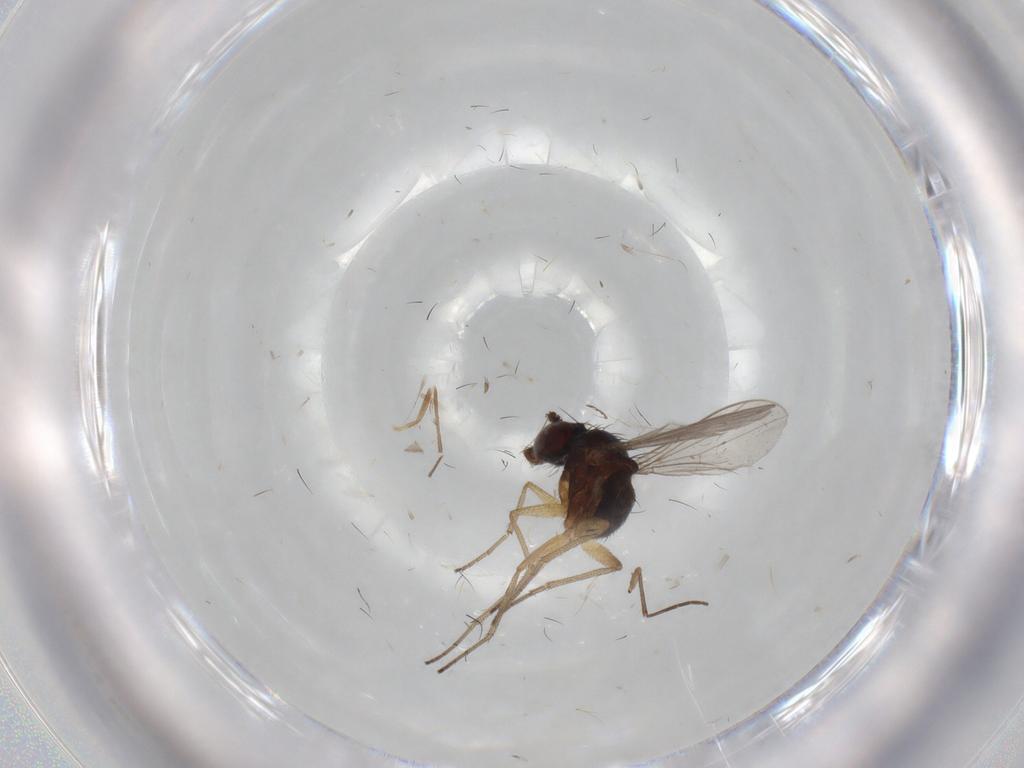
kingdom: Animalia
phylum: Arthropoda
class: Insecta
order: Diptera
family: Dolichopodidae
